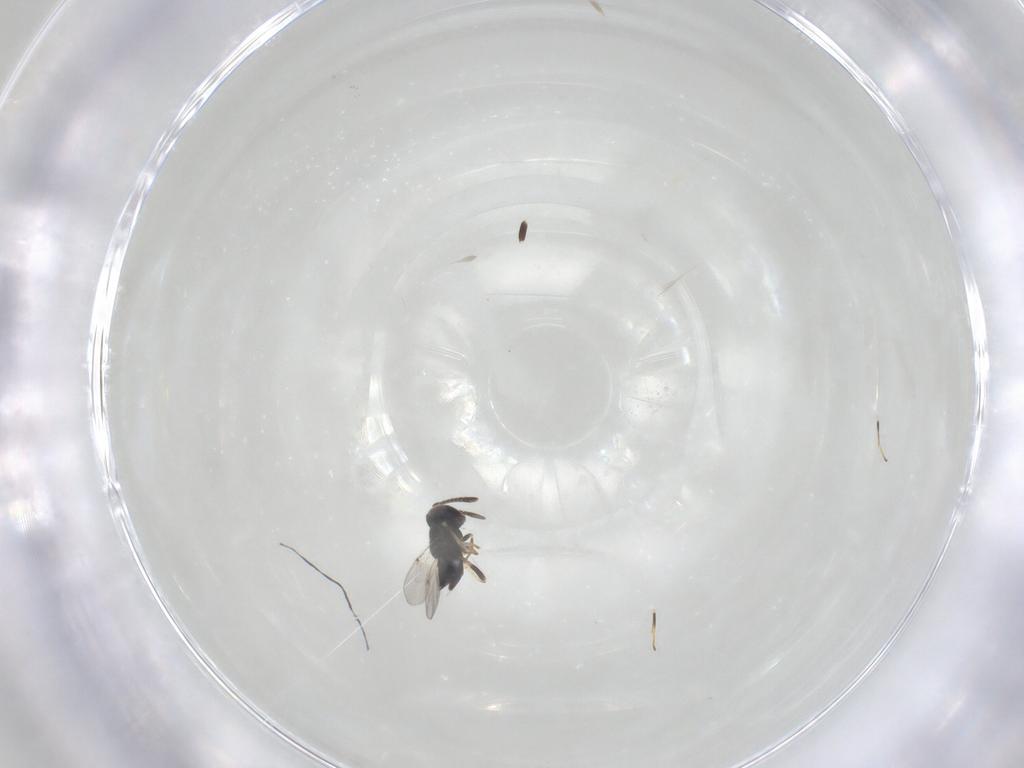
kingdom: Animalia
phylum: Arthropoda
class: Insecta
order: Hymenoptera
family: Encyrtidae
